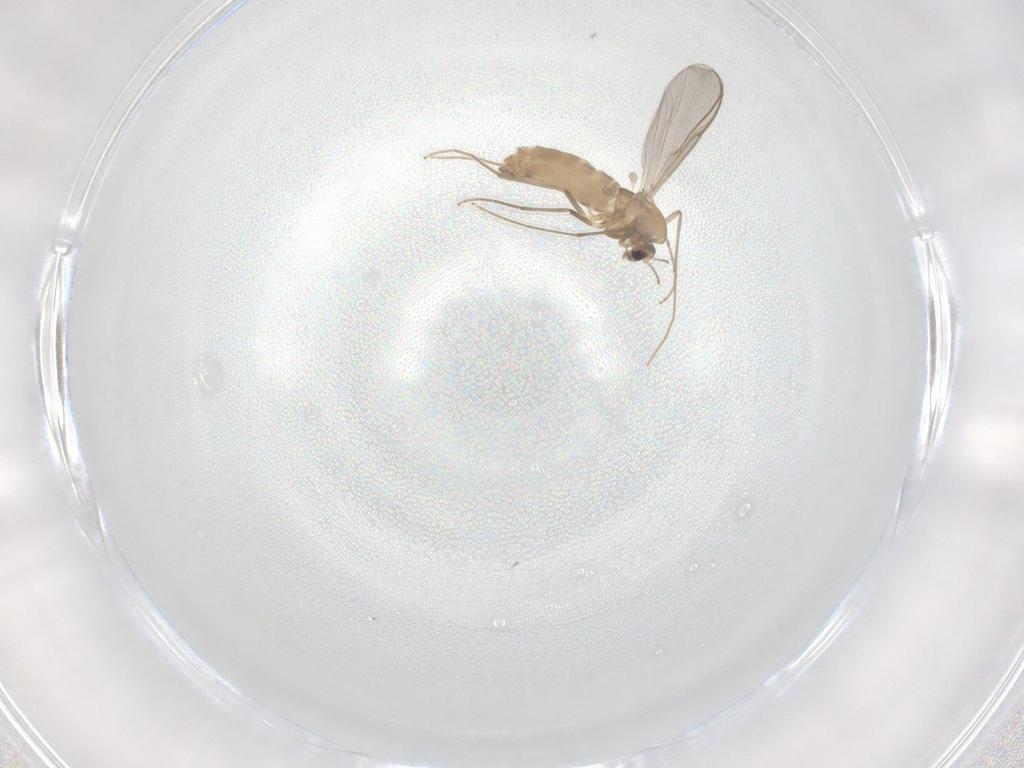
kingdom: Animalia
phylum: Arthropoda
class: Insecta
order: Diptera
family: Chironomidae
